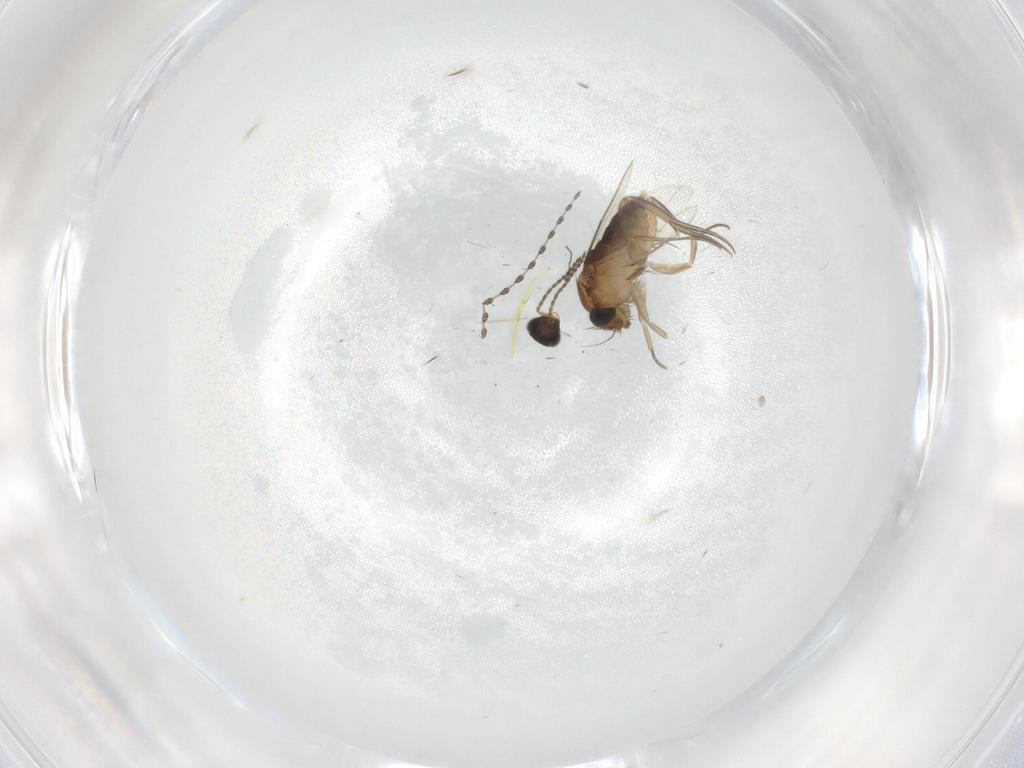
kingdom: Animalia
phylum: Arthropoda
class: Insecta
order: Diptera
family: Phoridae
